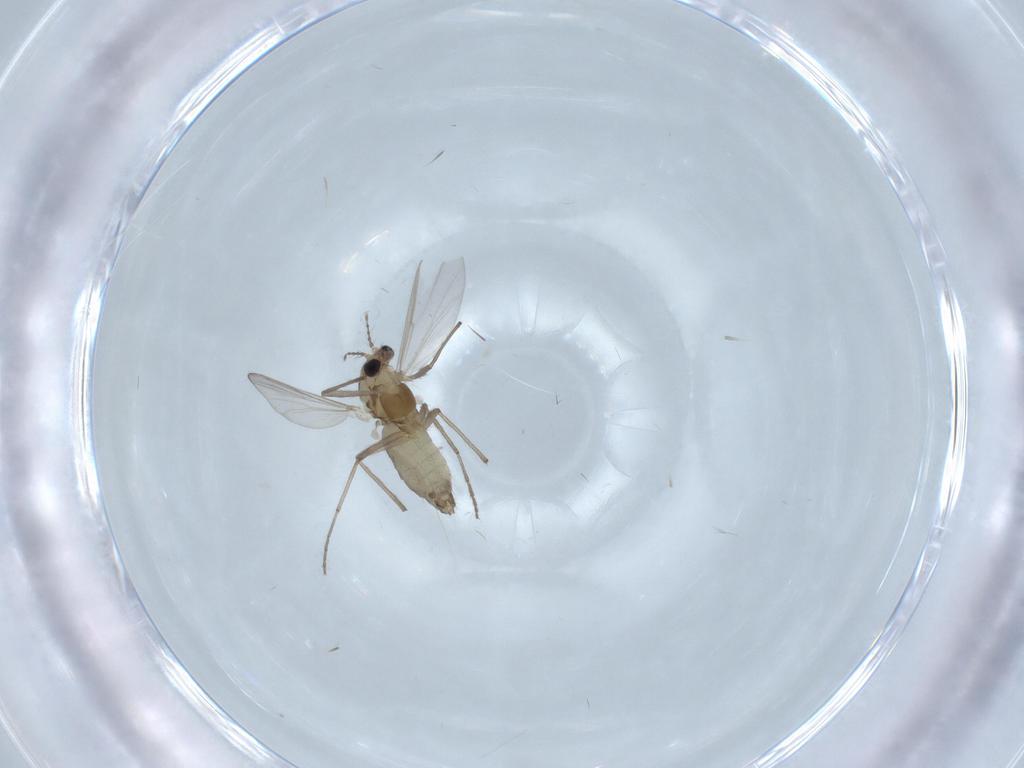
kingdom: Animalia
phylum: Arthropoda
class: Insecta
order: Diptera
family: Chironomidae
